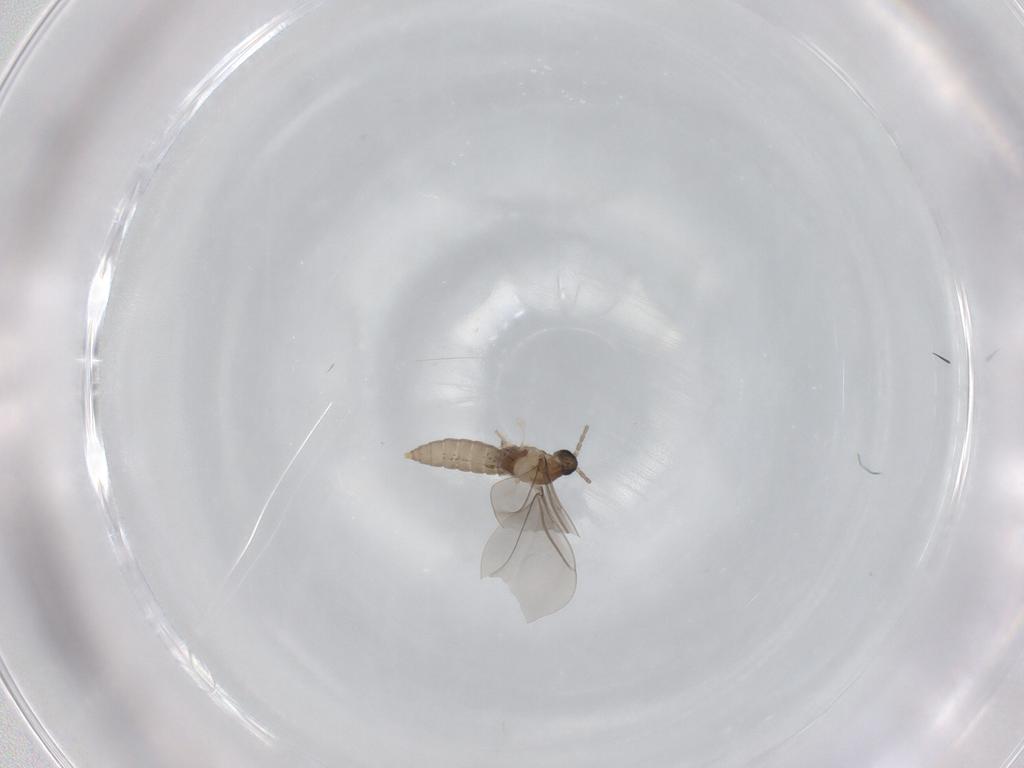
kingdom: Animalia
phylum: Arthropoda
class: Insecta
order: Diptera
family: Cecidomyiidae
